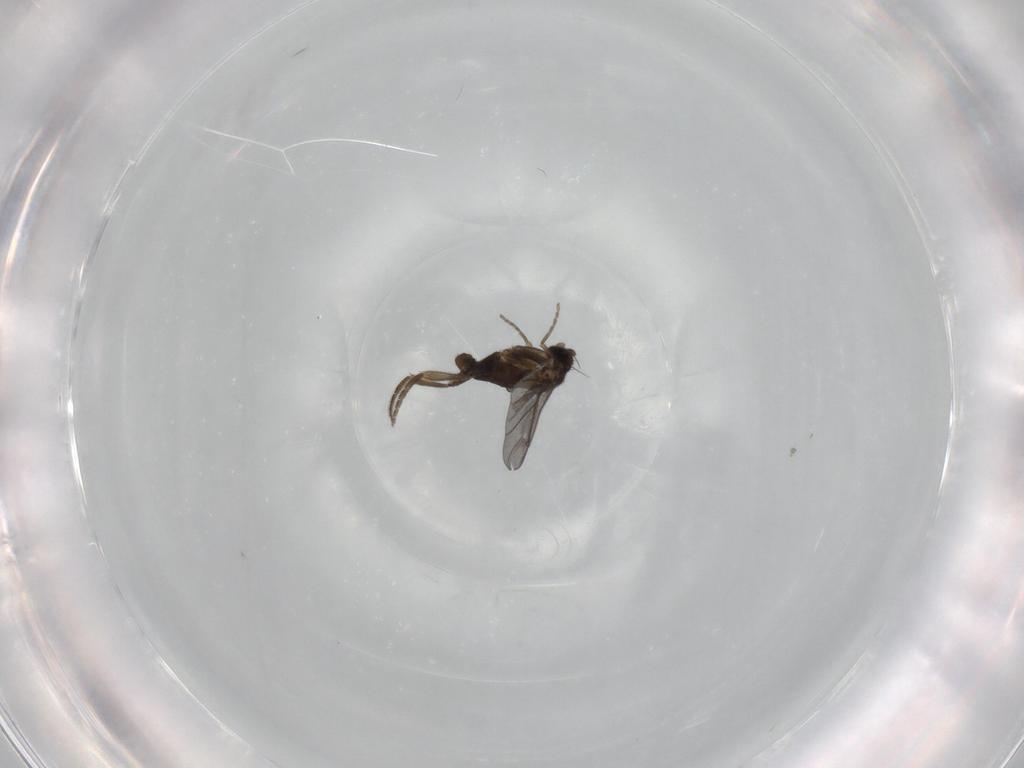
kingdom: Animalia
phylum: Arthropoda
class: Insecta
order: Diptera
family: Cecidomyiidae
